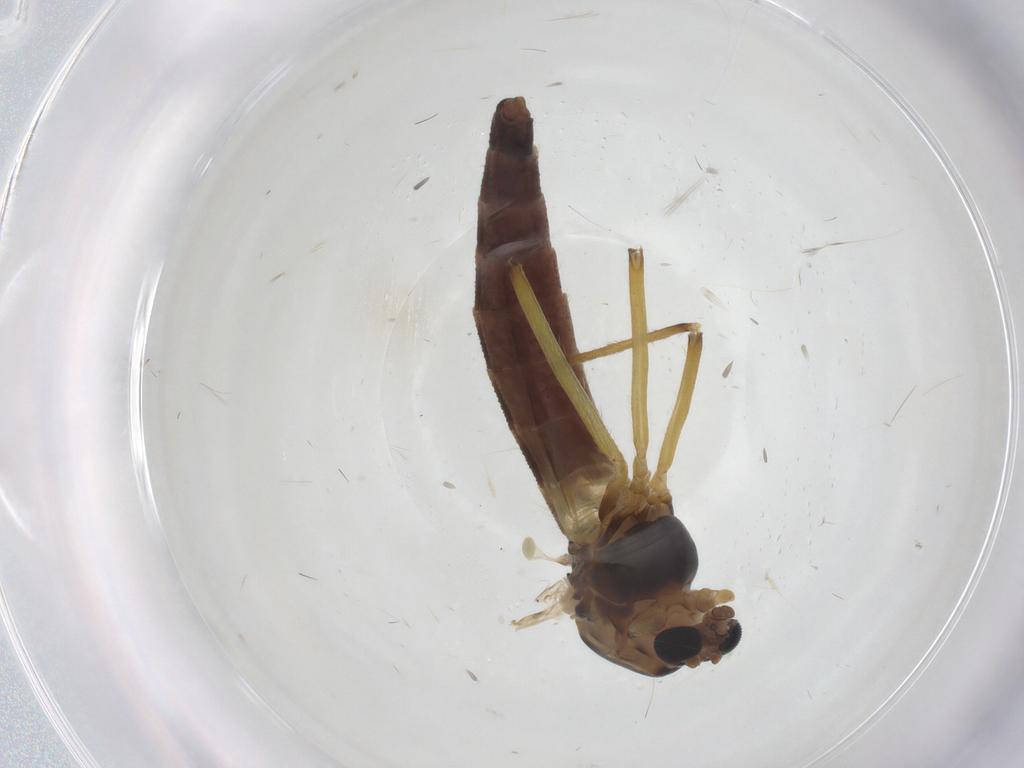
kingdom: Animalia
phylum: Arthropoda
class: Insecta
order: Diptera
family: Chironomidae
